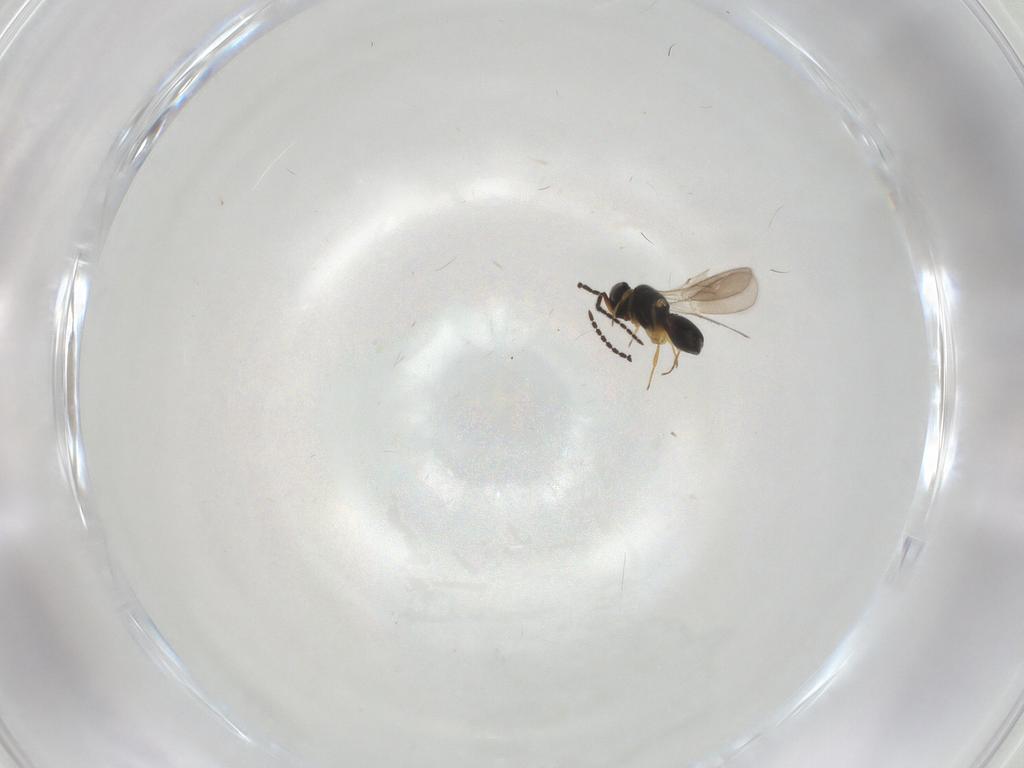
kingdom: Animalia
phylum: Arthropoda
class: Insecta
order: Hymenoptera
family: Scelionidae
